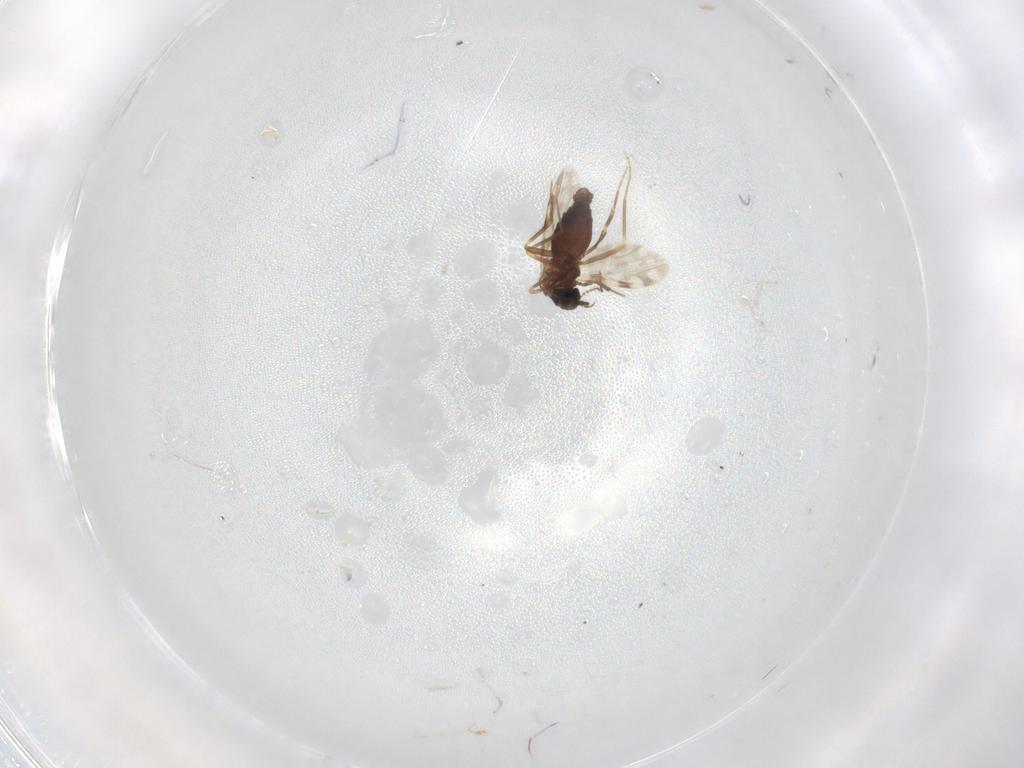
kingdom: Animalia
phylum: Arthropoda
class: Insecta
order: Diptera
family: Ceratopogonidae
